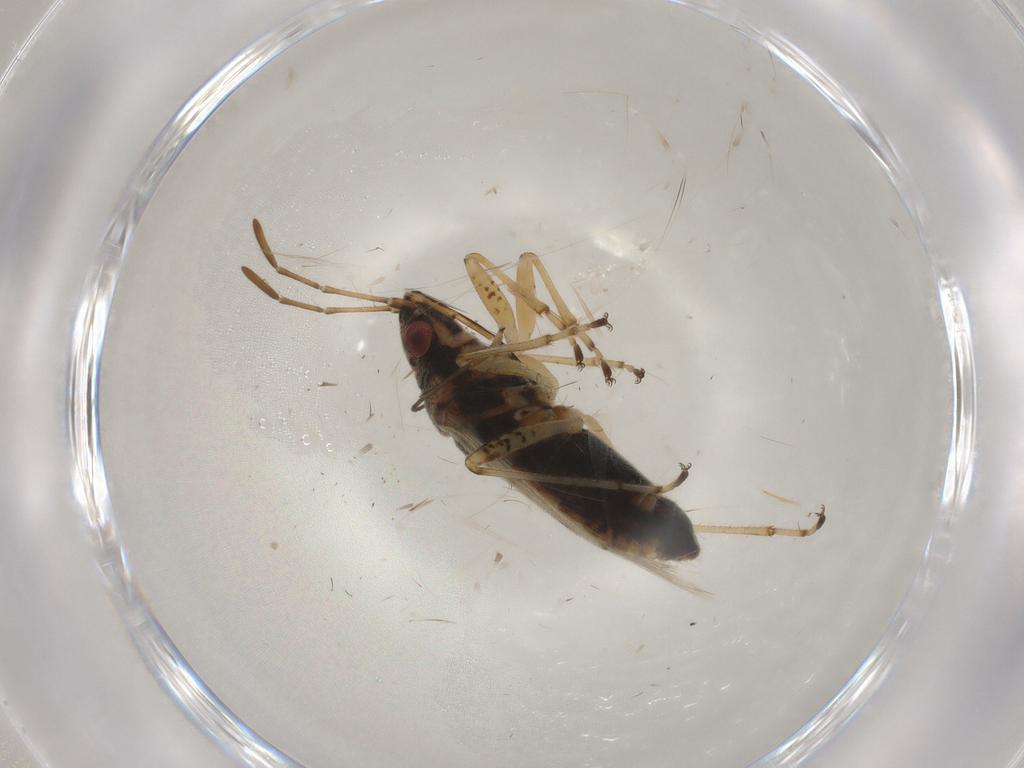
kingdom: Animalia
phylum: Arthropoda
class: Insecta
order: Hemiptera
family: Lygaeidae
